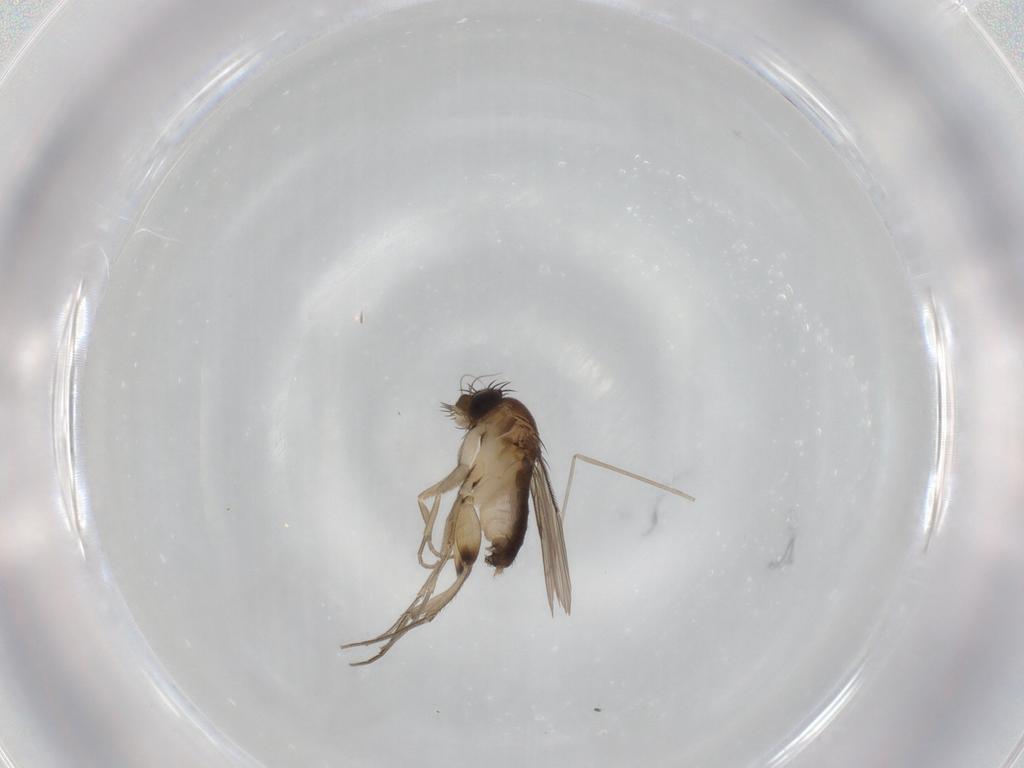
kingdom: Animalia
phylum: Arthropoda
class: Insecta
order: Diptera
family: Phoridae
